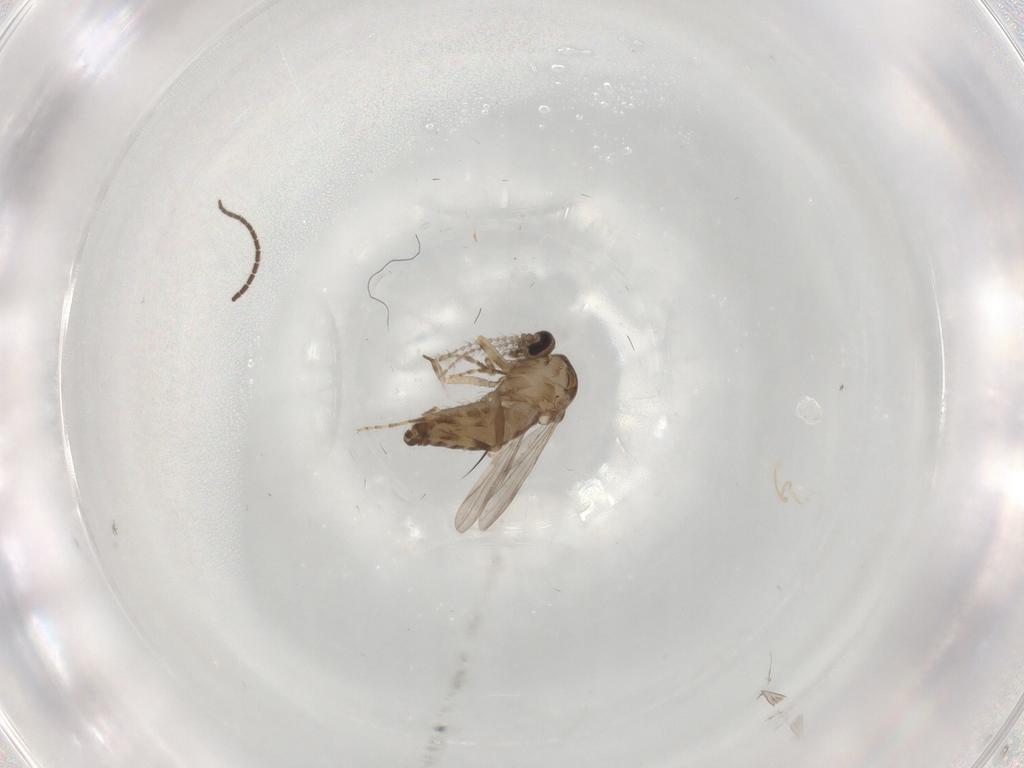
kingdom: Animalia
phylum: Arthropoda
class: Insecta
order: Diptera
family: Ceratopogonidae
